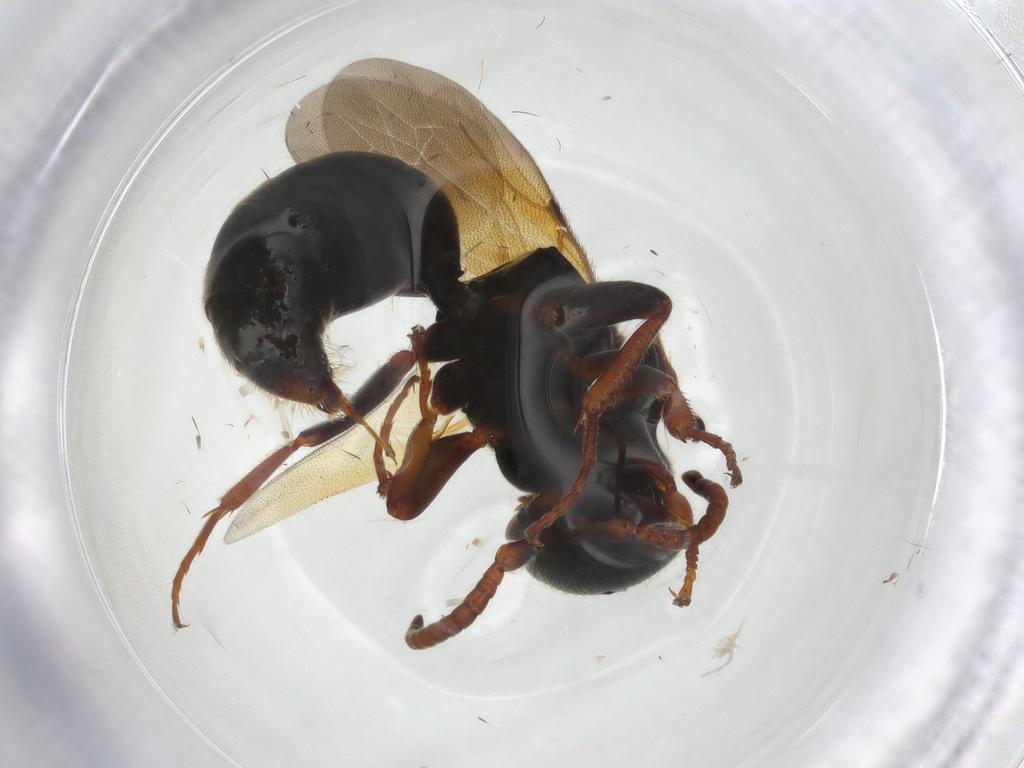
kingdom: Animalia
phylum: Arthropoda
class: Insecta
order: Hymenoptera
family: Bethylidae
